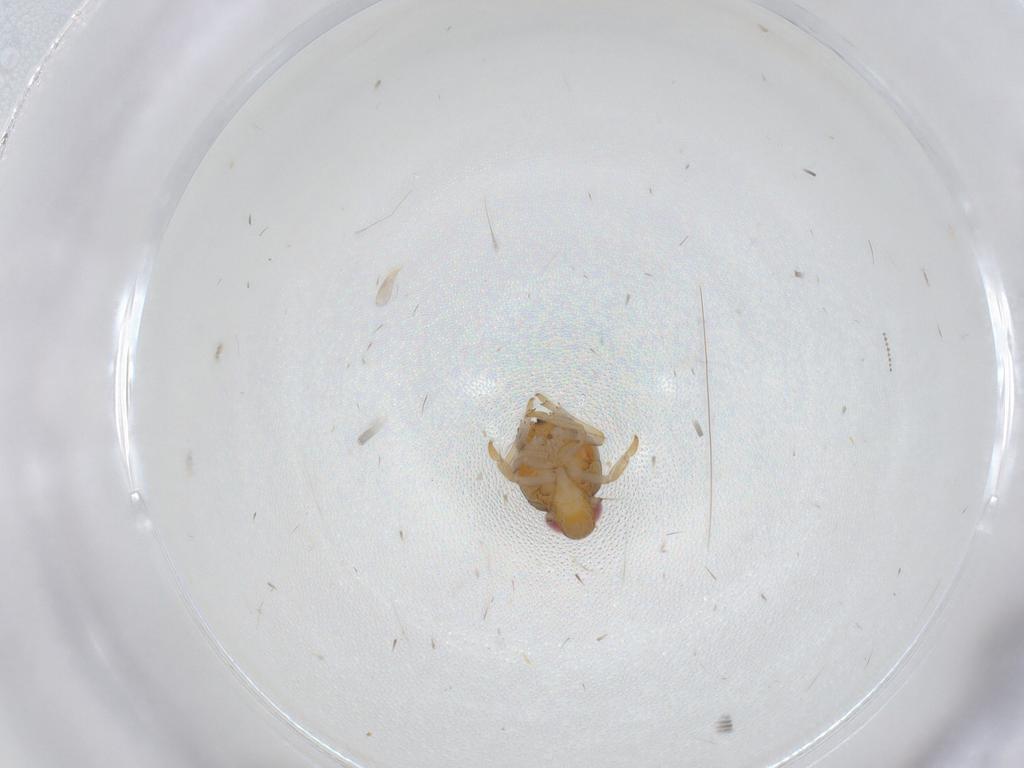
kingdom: Animalia
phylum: Arthropoda
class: Insecta
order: Hemiptera
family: Issidae
